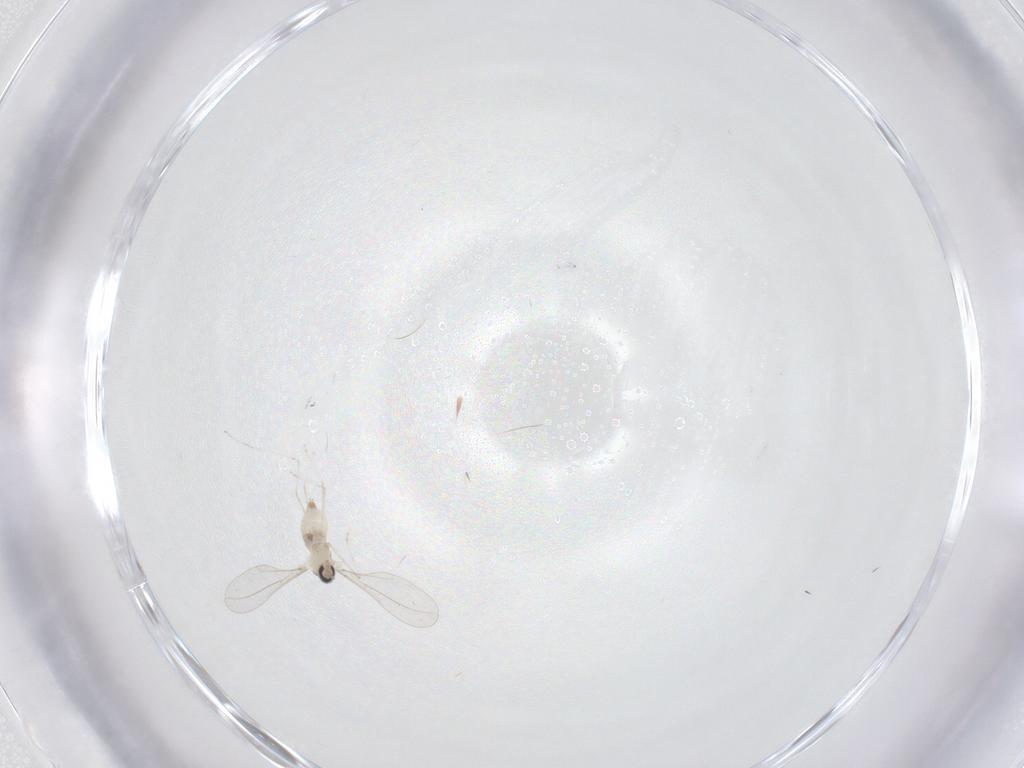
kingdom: Animalia
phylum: Arthropoda
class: Insecta
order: Diptera
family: Cecidomyiidae
